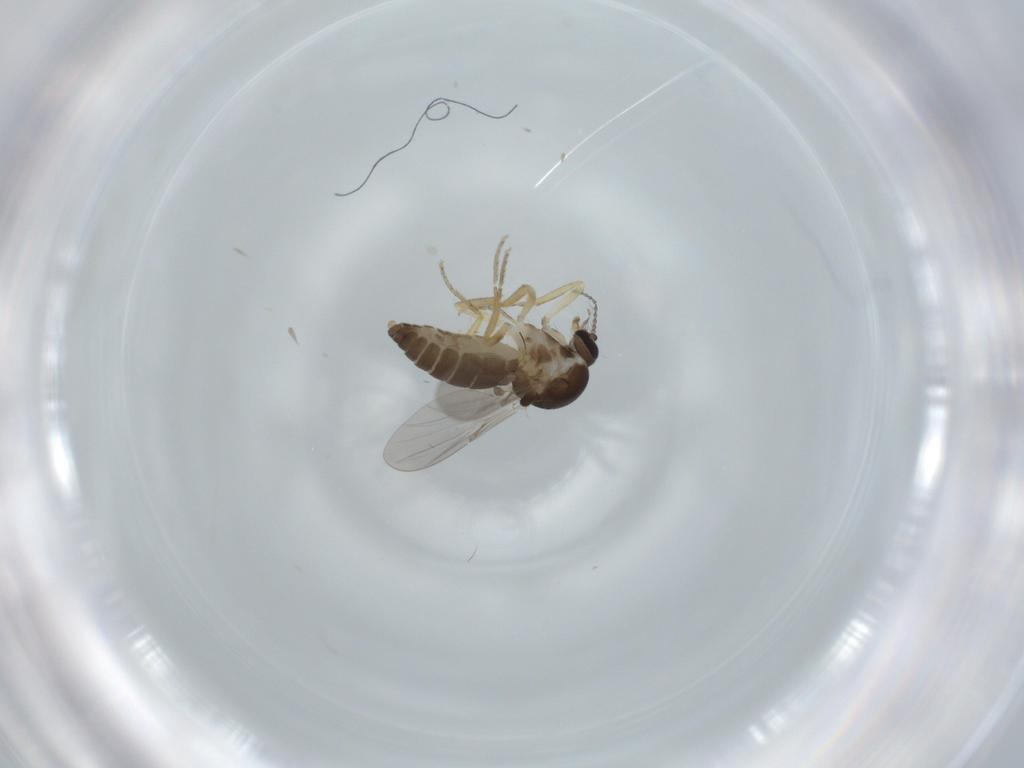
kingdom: Animalia
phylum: Arthropoda
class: Insecta
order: Diptera
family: Ceratopogonidae
